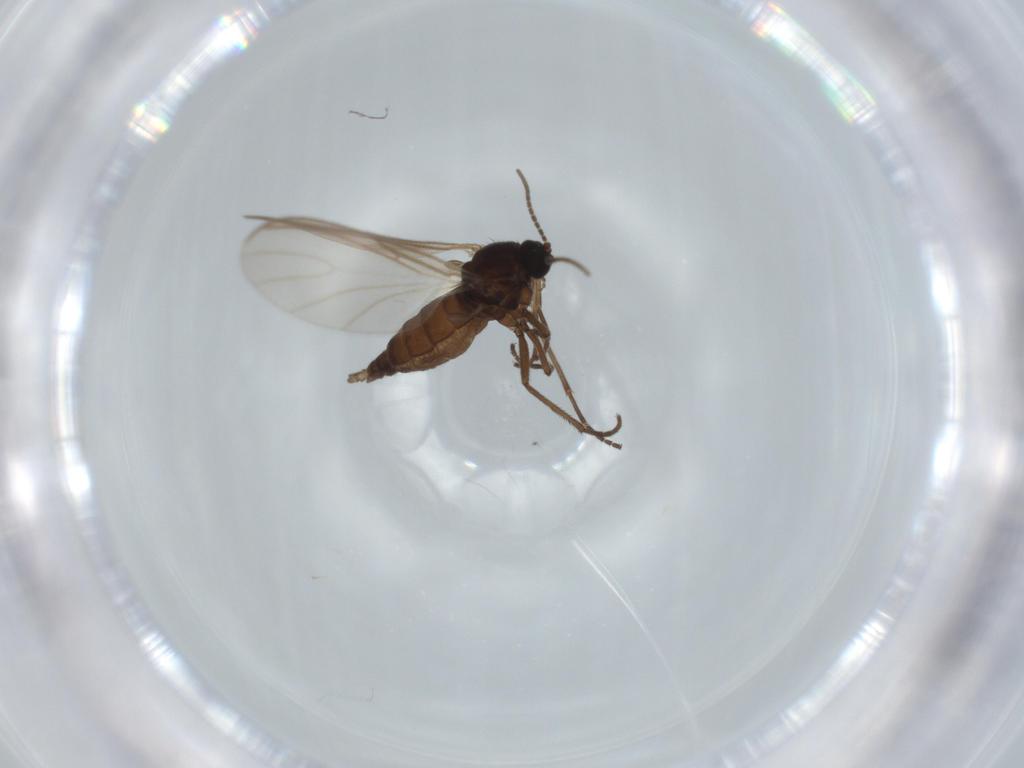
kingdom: Animalia
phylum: Arthropoda
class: Insecta
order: Diptera
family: Sciaridae
